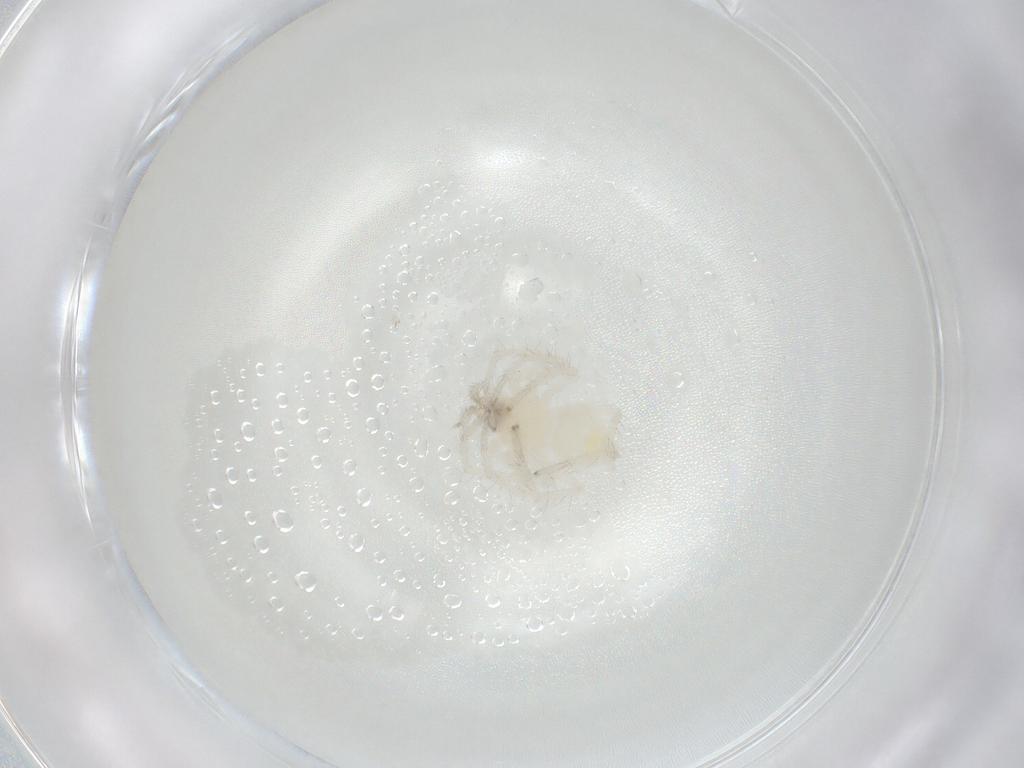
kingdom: Animalia
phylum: Arthropoda
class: Arachnida
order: Araneae
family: Anyphaenidae
